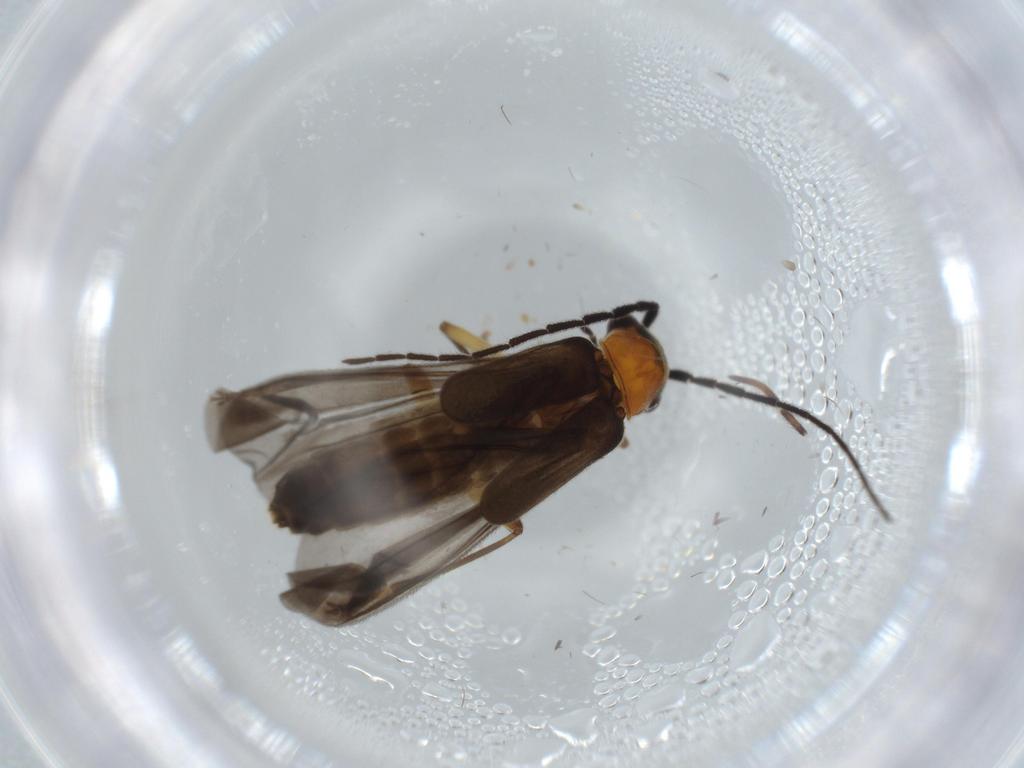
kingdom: Animalia
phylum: Arthropoda
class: Insecta
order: Coleoptera
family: Cantharidae
